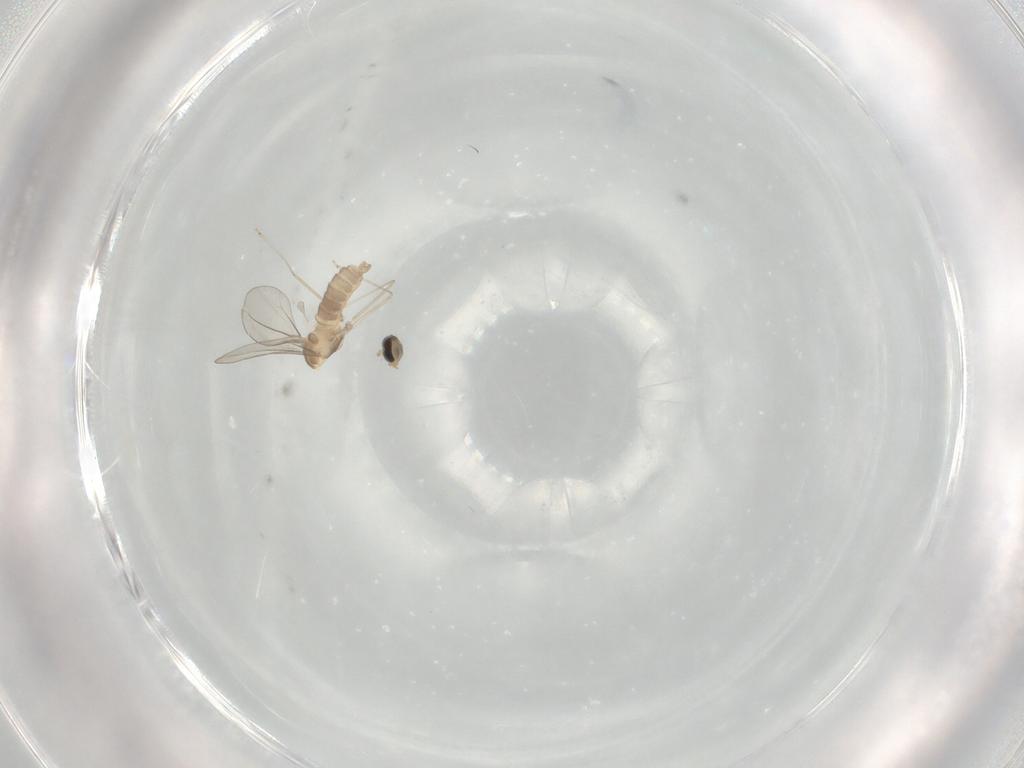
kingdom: Animalia
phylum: Arthropoda
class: Insecta
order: Diptera
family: Cecidomyiidae
